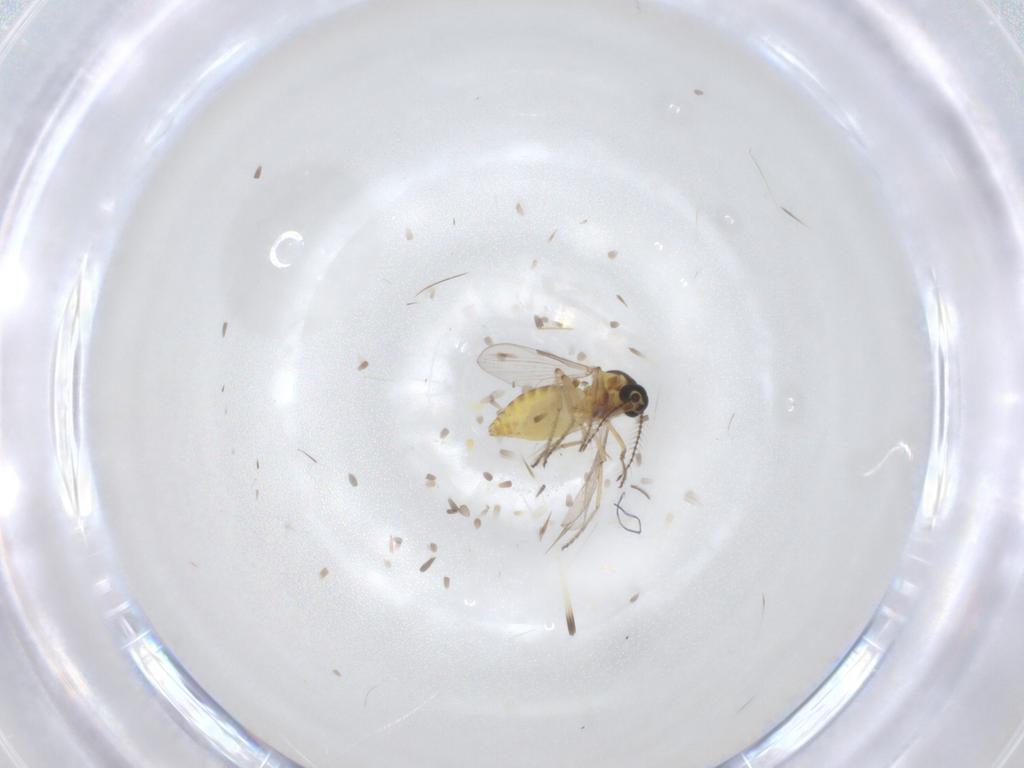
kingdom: Animalia
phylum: Arthropoda
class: Insecta
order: Diptera
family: Ceratopogonidae
